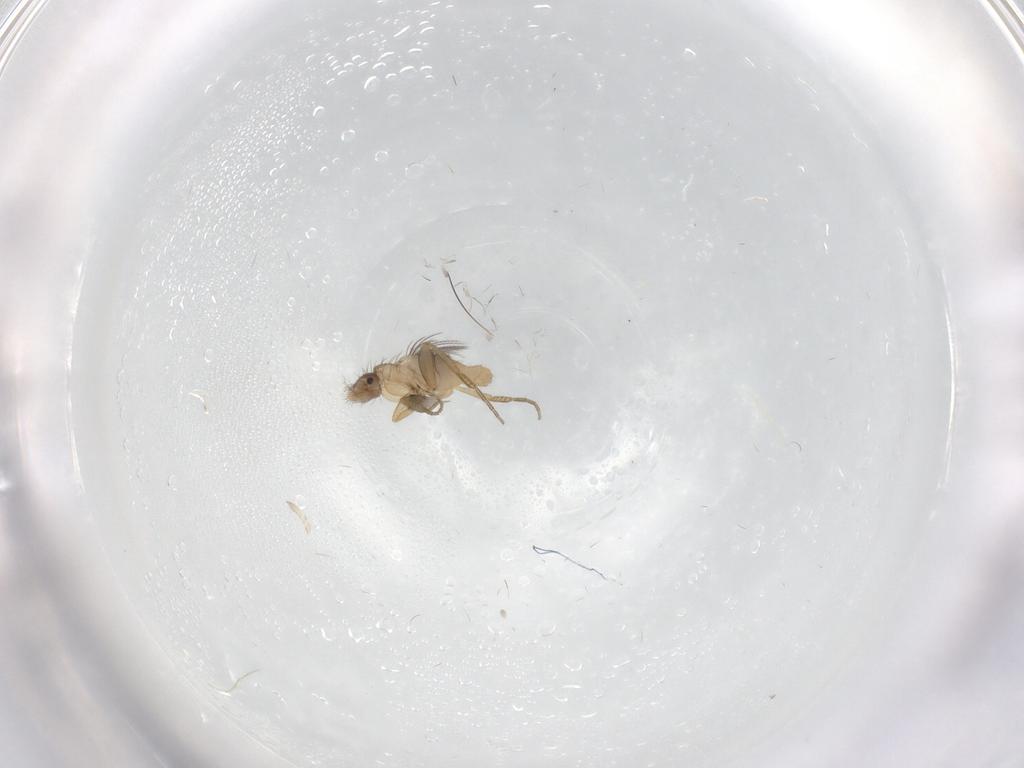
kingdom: Animalia
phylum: Arthropoda
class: Insecta
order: Diptera
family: Phoridae
